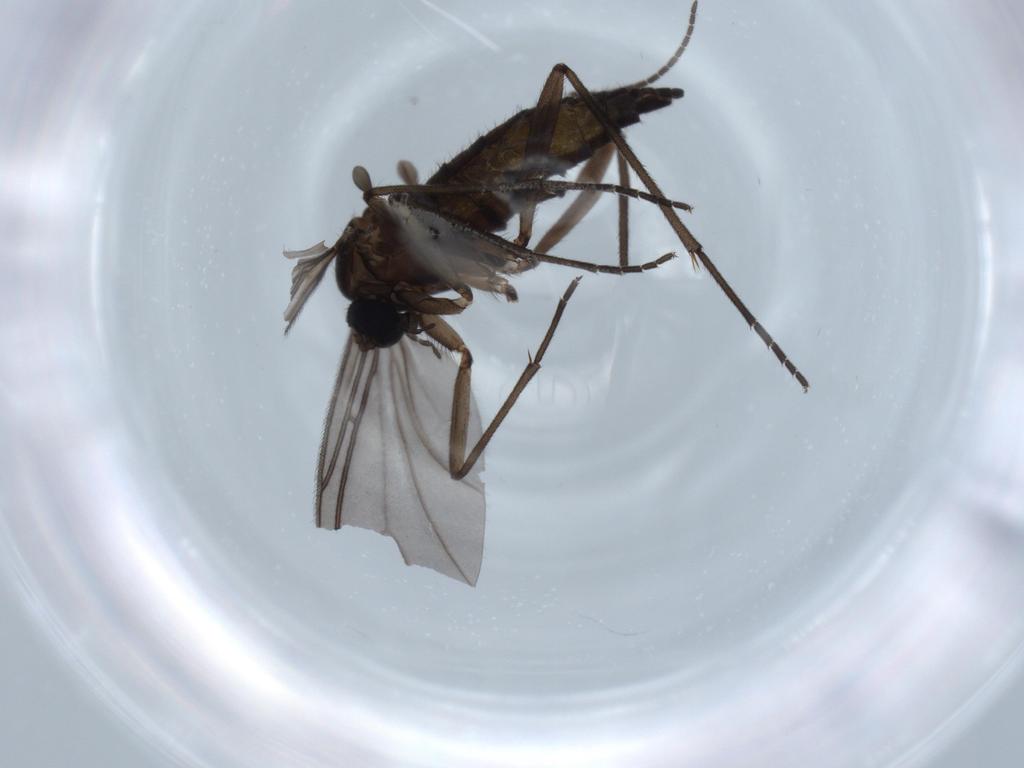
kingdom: Animalia
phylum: Arthropoda
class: Insecta
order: Diptera
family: Sciaridae
